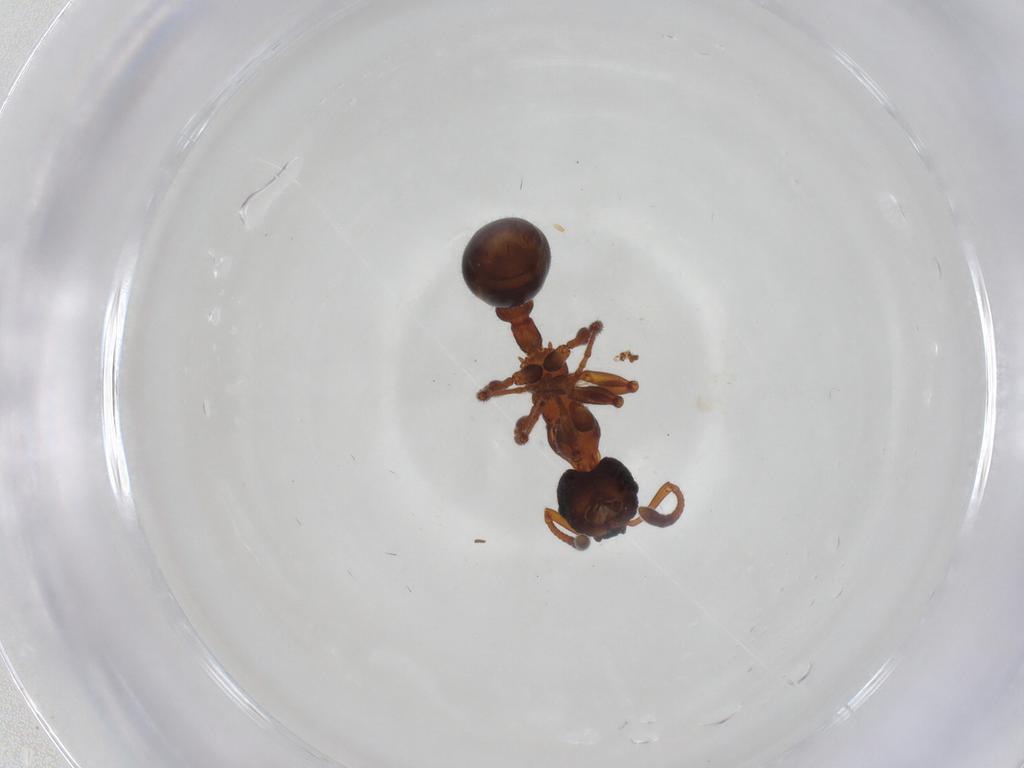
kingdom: Animalia
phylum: Arthropoda
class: Insecta
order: Hymenoptera
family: Formicidae
